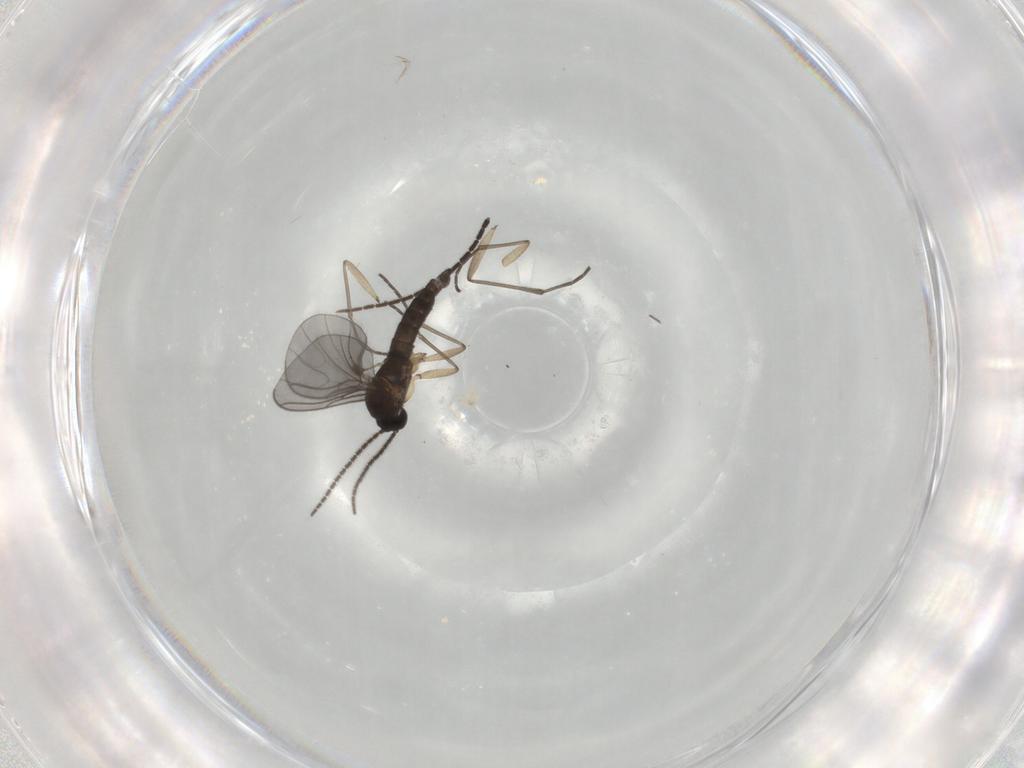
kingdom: Animalia
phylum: Arthropoda
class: Insecta
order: Diptera
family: Sciaridae
